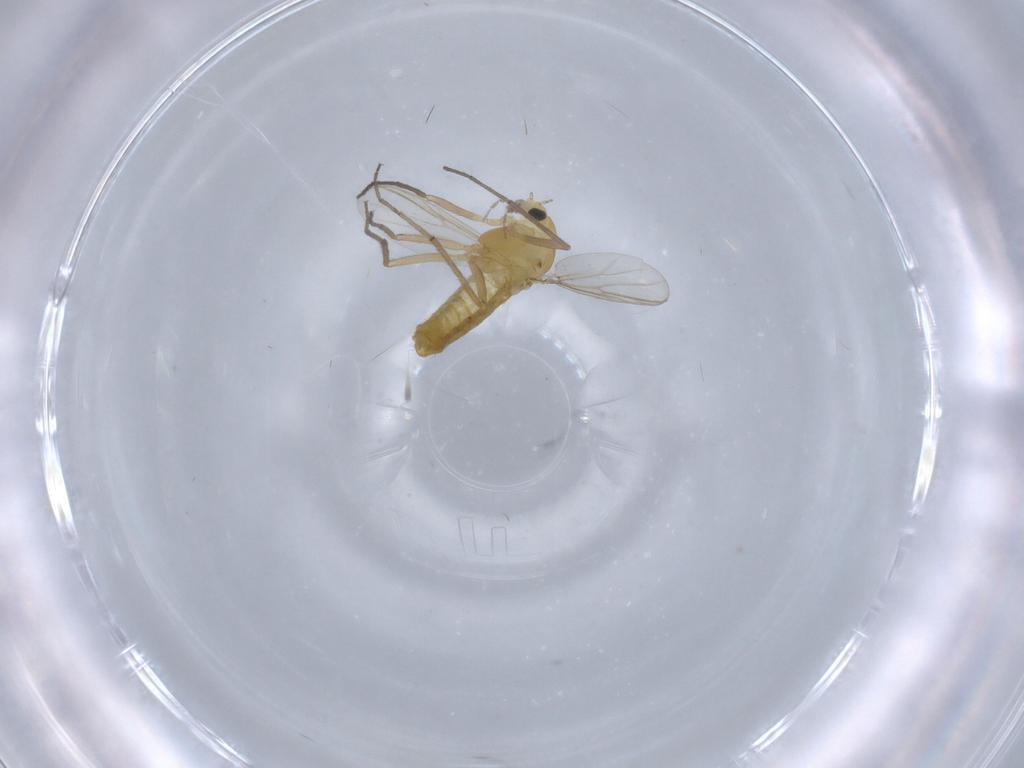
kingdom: Animalia
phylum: Arthropoda
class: Insecta
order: Diptera
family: Chironomidae
